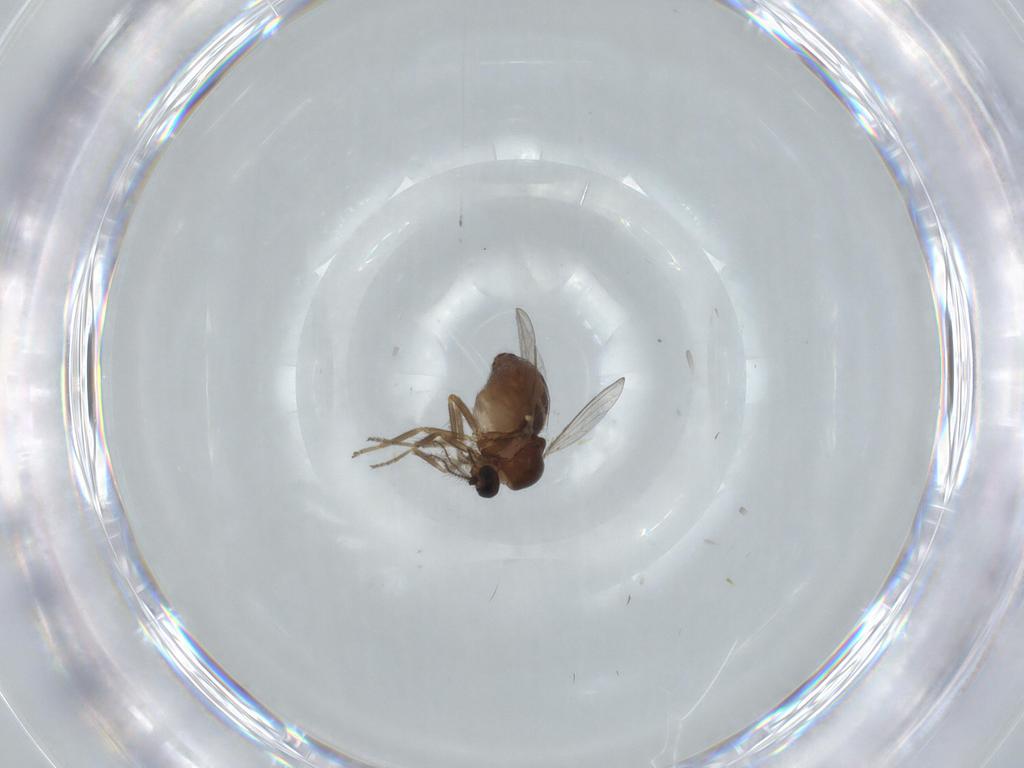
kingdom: Animalia
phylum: Arthropoda
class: Insecta
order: Diptera
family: Ceratopogonidae
